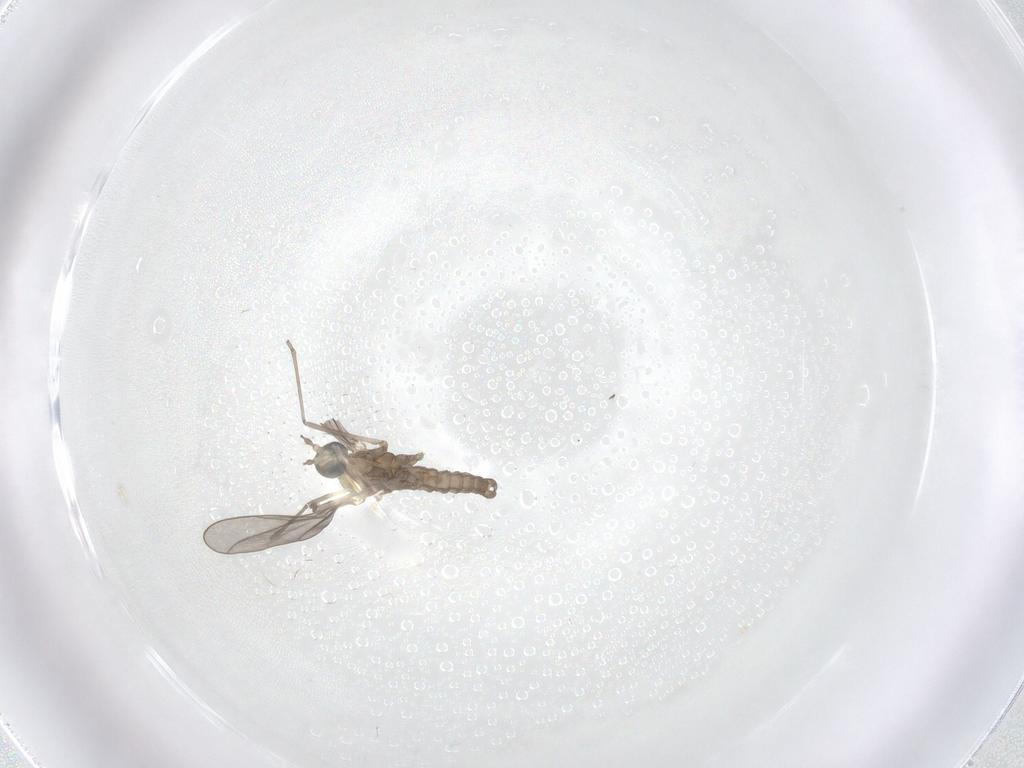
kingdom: Animalia
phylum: Arthropoda
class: Insecta
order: Diptera
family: Cecidomyiidae
